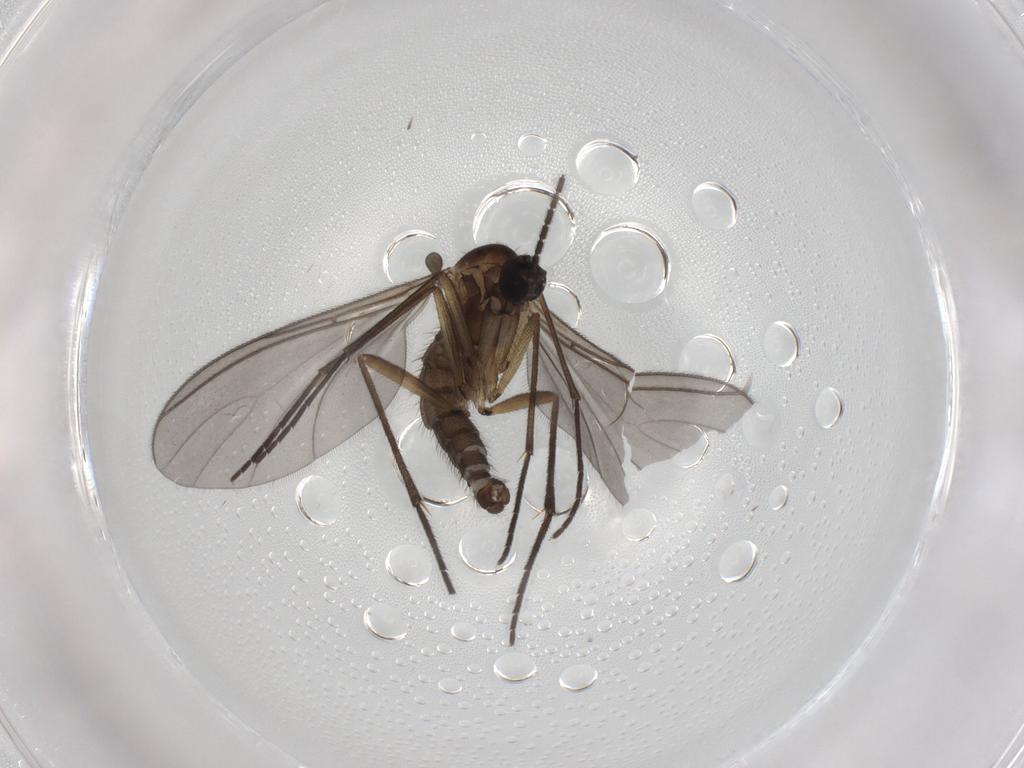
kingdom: Animalia
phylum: Arthropoda
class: Insecta
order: Diptera
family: Sciaridae
